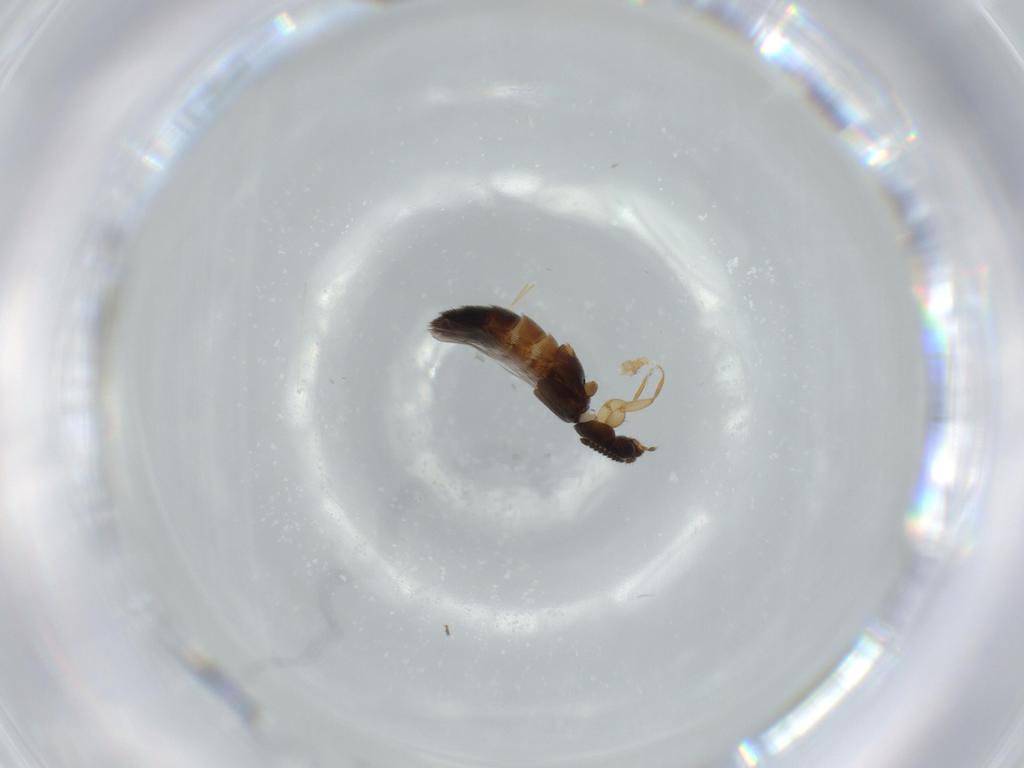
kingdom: Animalia
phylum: Arthropoda
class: Insecta
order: Coleoptera
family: Staphylinidae
